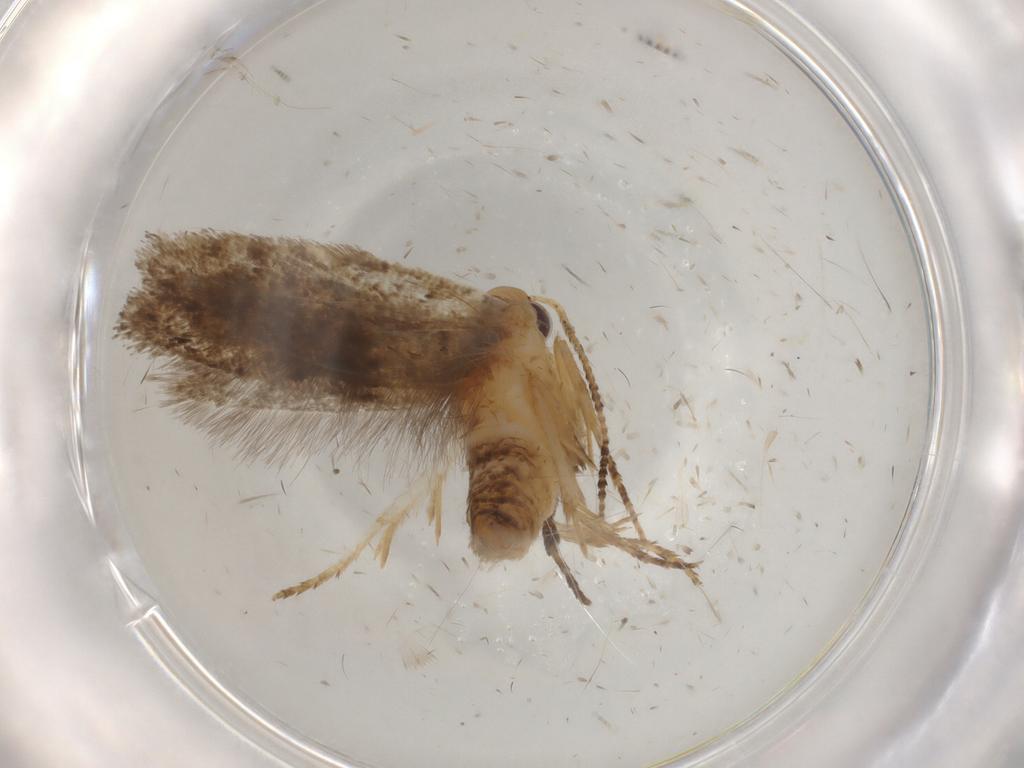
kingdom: Animalia
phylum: Arthropoda
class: Insecta
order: Lepidoptera
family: Ypsolophidae
